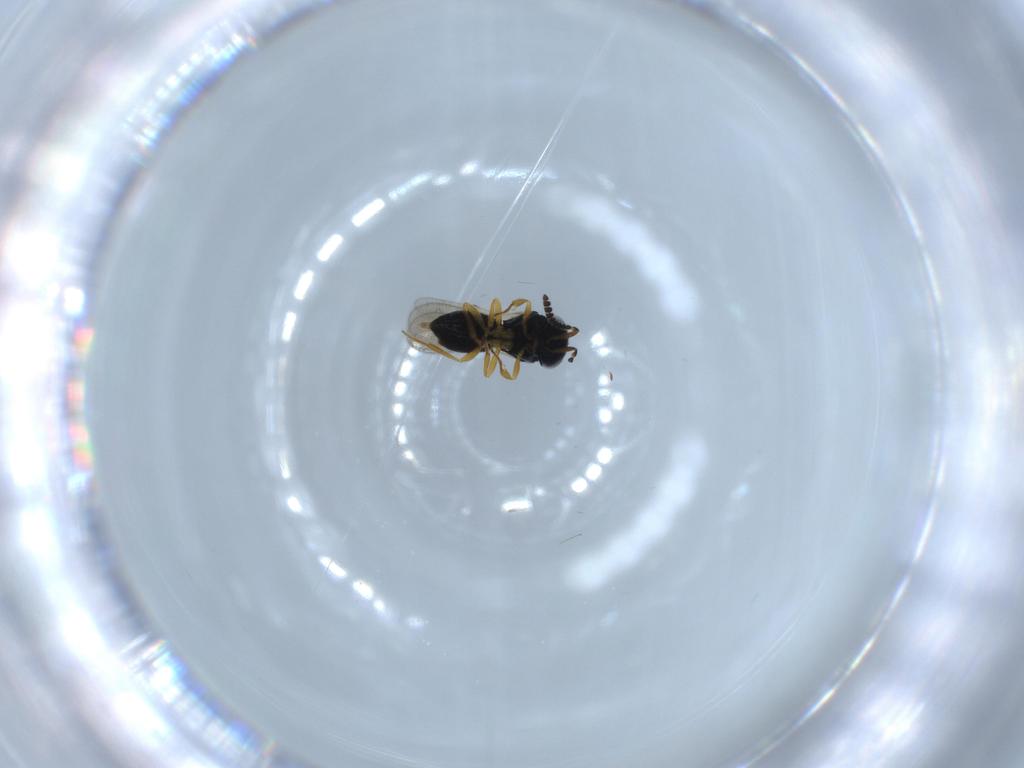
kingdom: Animalia
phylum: Arthropoda
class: Insecta
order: Hymenoptera
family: Scelionidae
